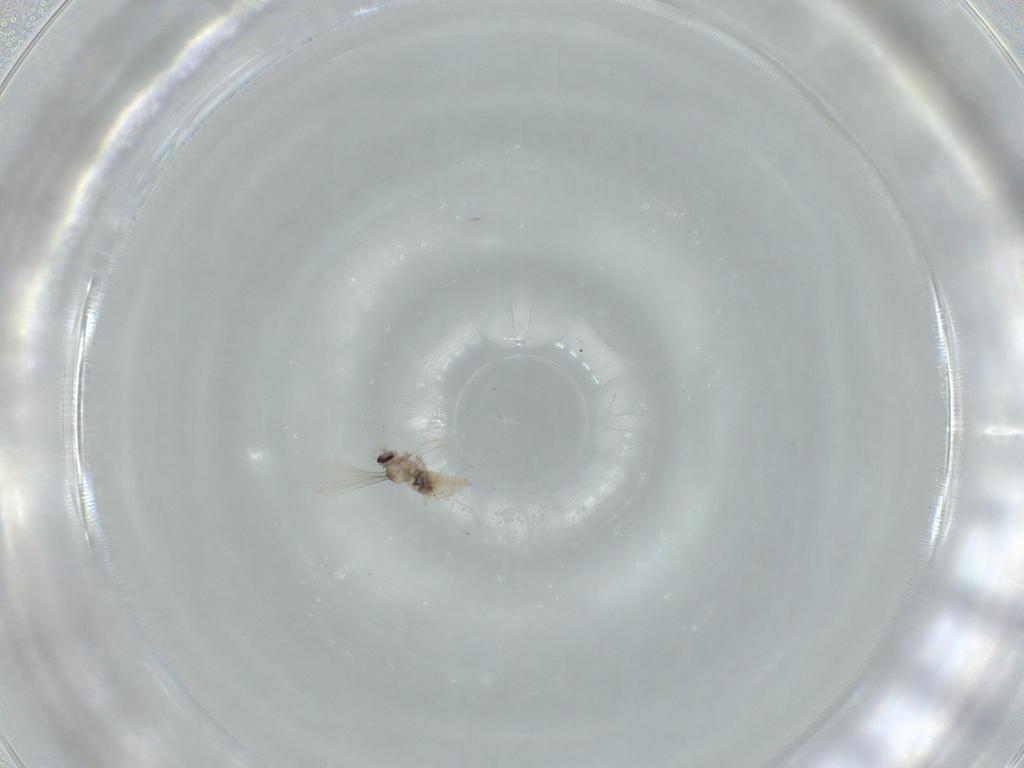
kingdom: Animalia
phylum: Arthropoda
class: Insecta
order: Diptera
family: Cecidomyiidae
